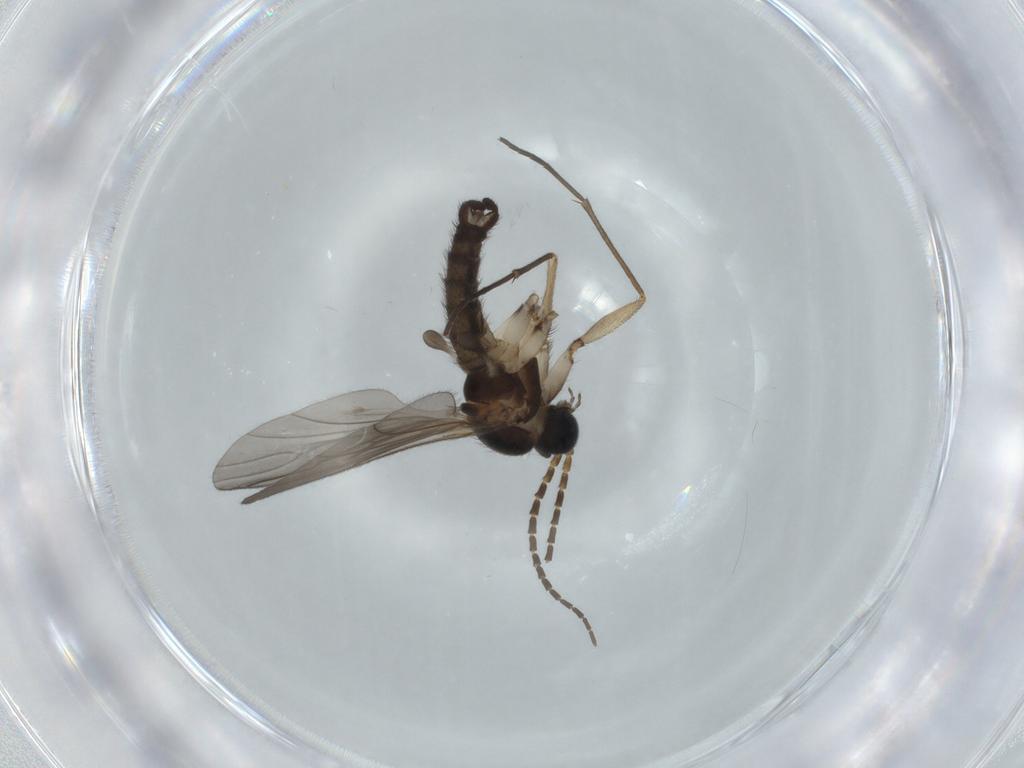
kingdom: Animalia
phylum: Arthropoda
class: Insecta
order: Diptera
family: Sciaridae
